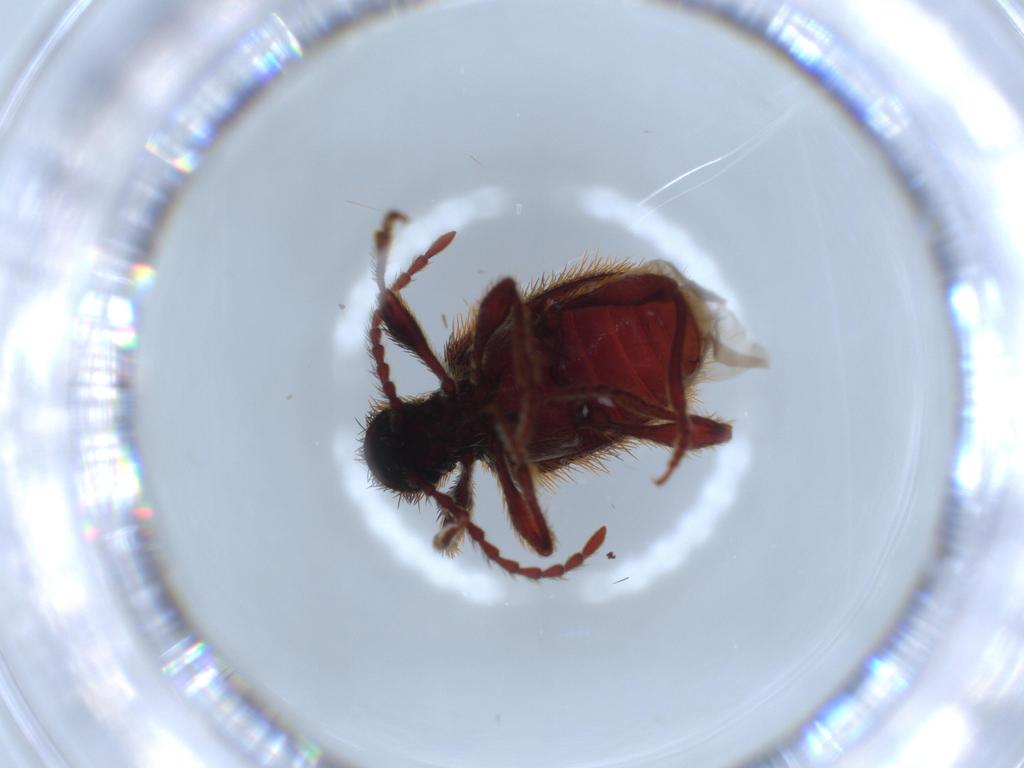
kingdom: Animalia
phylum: Arthropoda
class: Insecta
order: Coleoptera
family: Ptinidae
